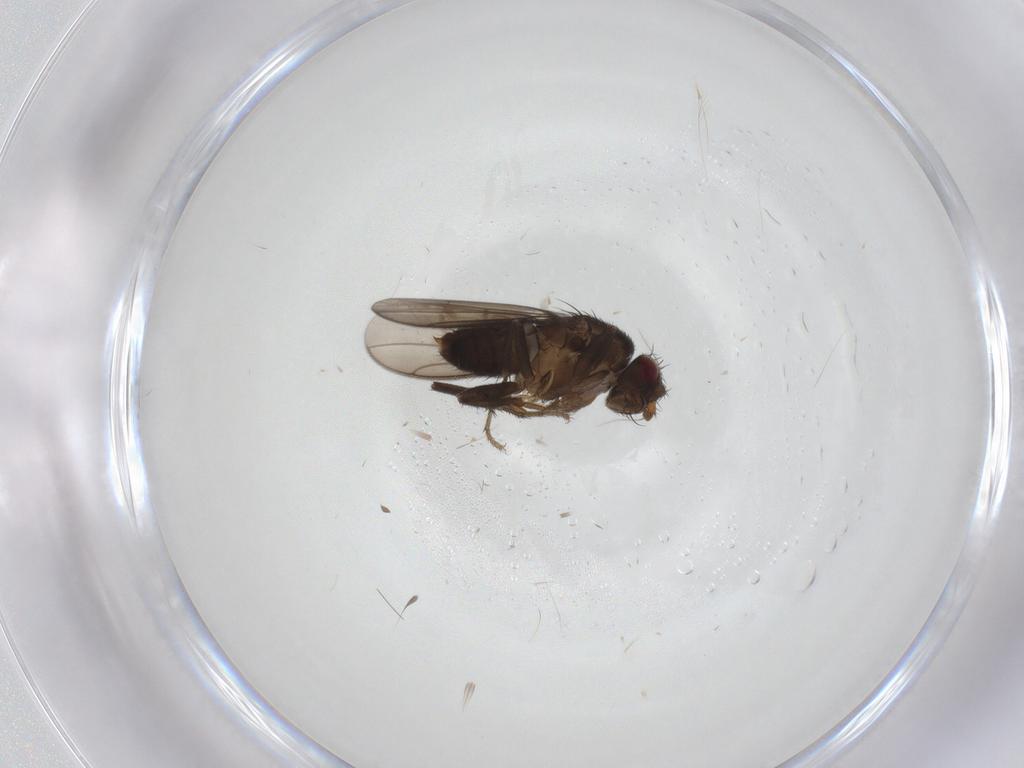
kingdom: Animalia
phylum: Arthropoda
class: Insecta
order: Diptera
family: Sphaeroceridae
